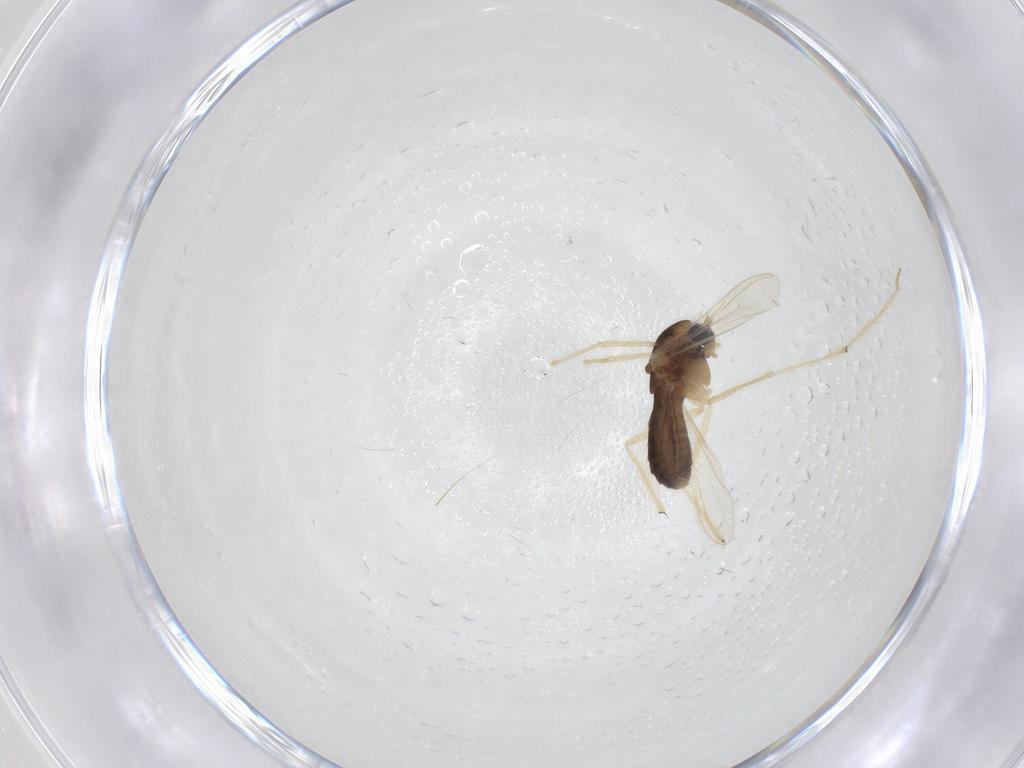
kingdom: Animalia
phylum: Arthropoda
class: Insecta
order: Diptera
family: Chironomidae
